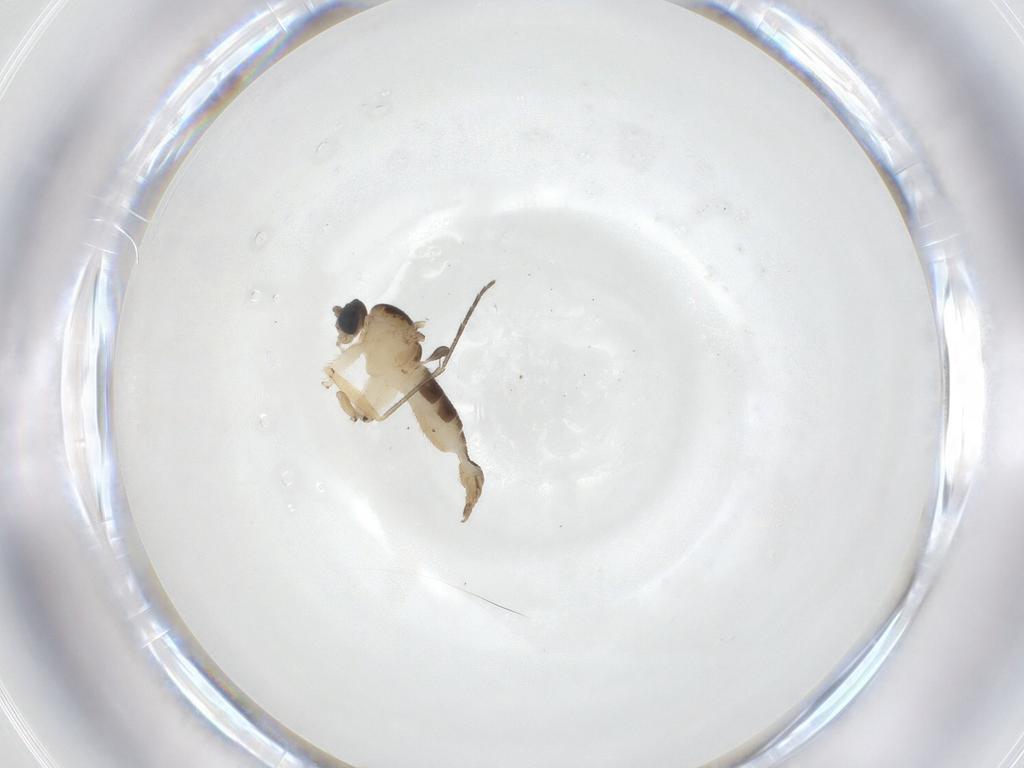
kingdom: Animalia
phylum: Arthropoda
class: Insecta
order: Diptera
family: Sciaridae
